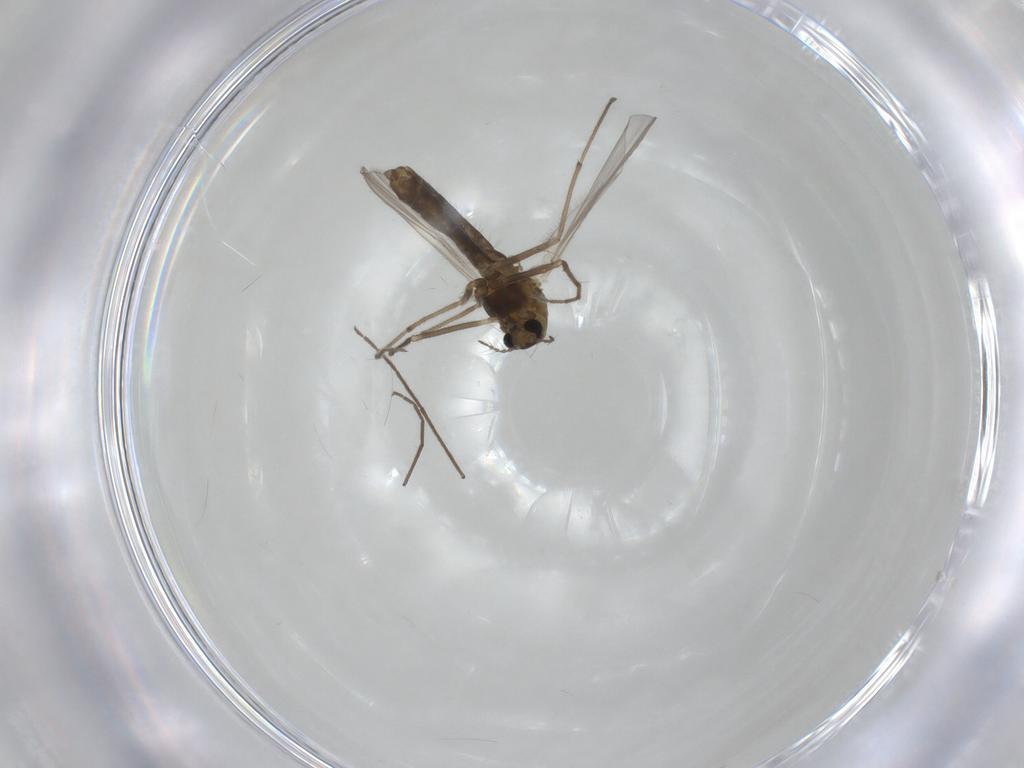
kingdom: Animalia
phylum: Arthropoda
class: Insecta
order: Diptera
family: Chironomidae
